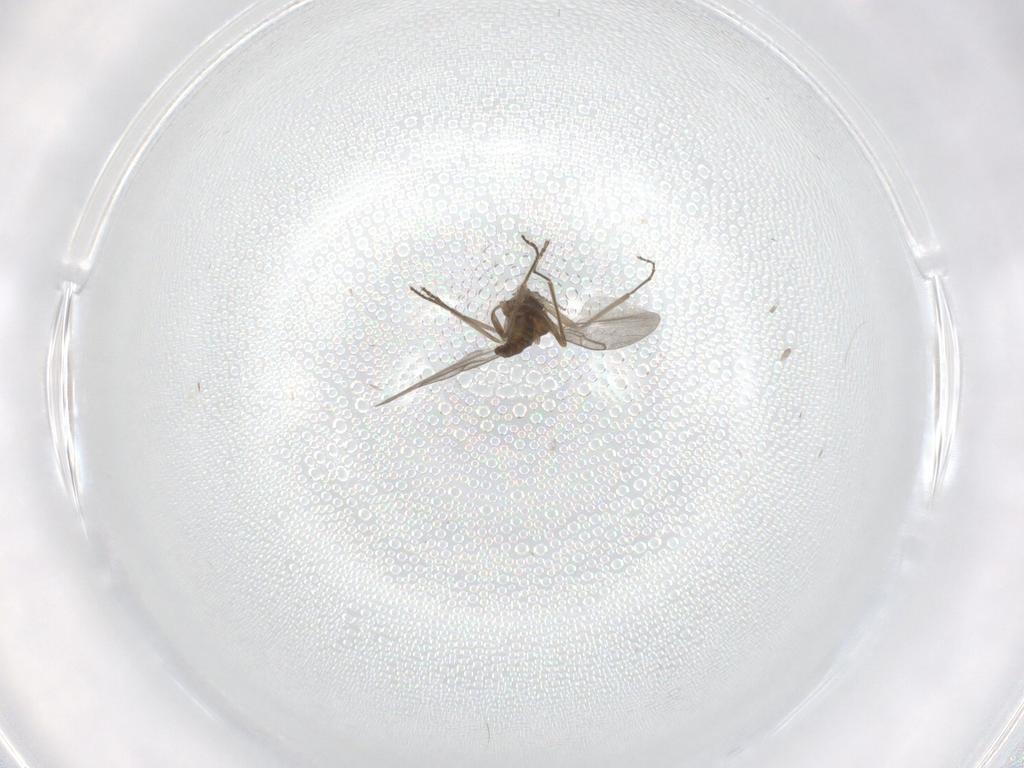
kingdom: Animalia
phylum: Arthropoda
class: Insecta
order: Diptera
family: Cecidomyiidae
